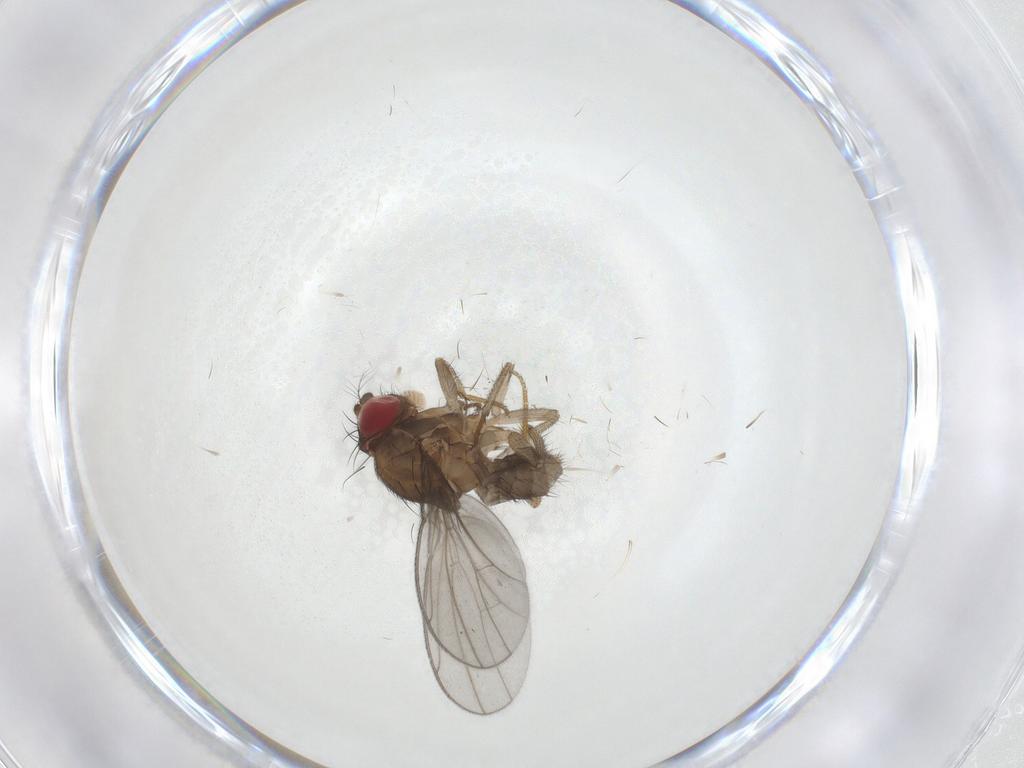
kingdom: Animalia
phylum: Arthropoda
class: Insecta
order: Diptera
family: Drosophilidae
